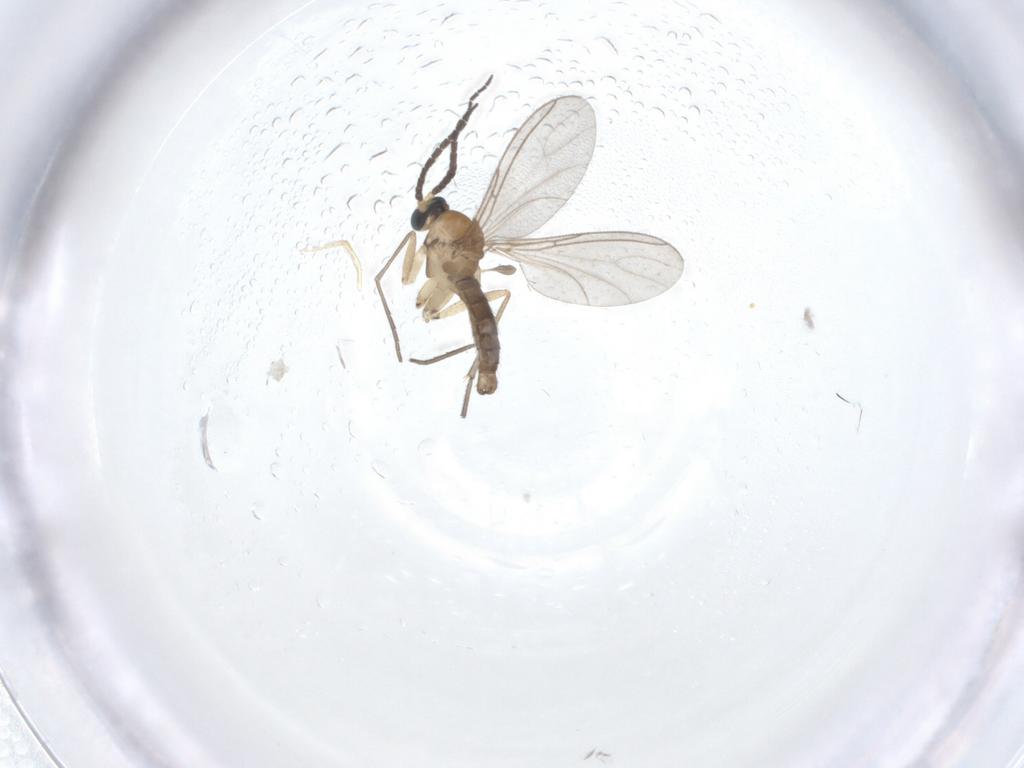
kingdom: Animalia
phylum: Arthropoda
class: Insecta
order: Diptera
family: Sciaridae
